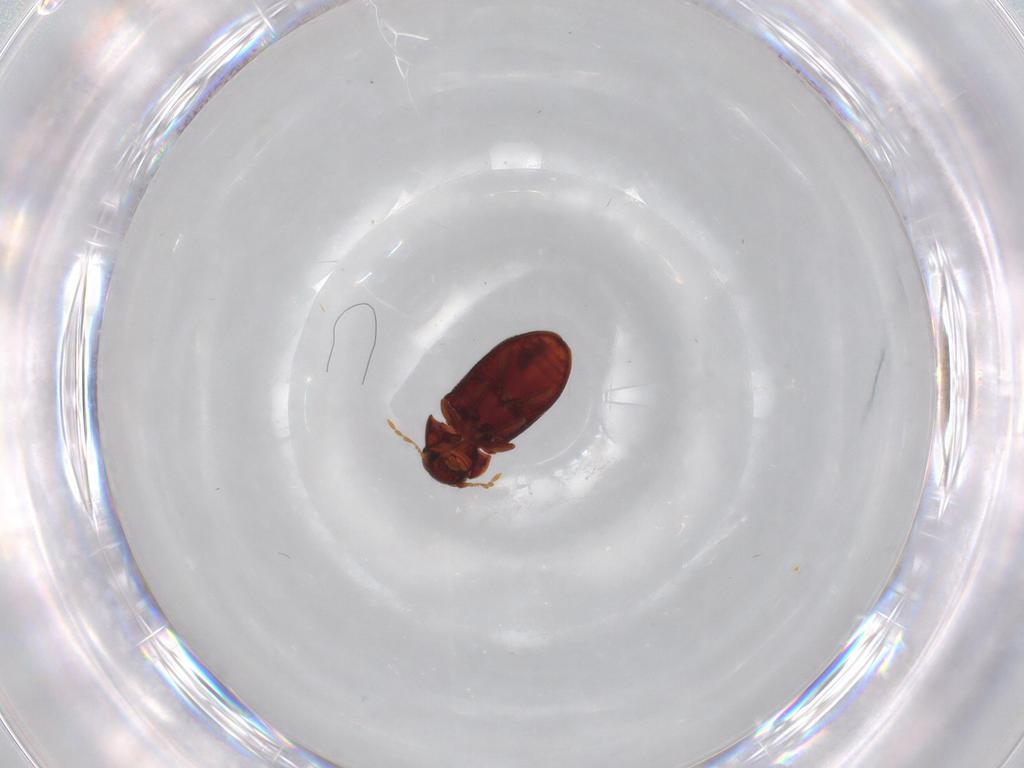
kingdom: Animalia
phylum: Arthropoda
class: Insecta
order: Coleoptera
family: Ptinidae
